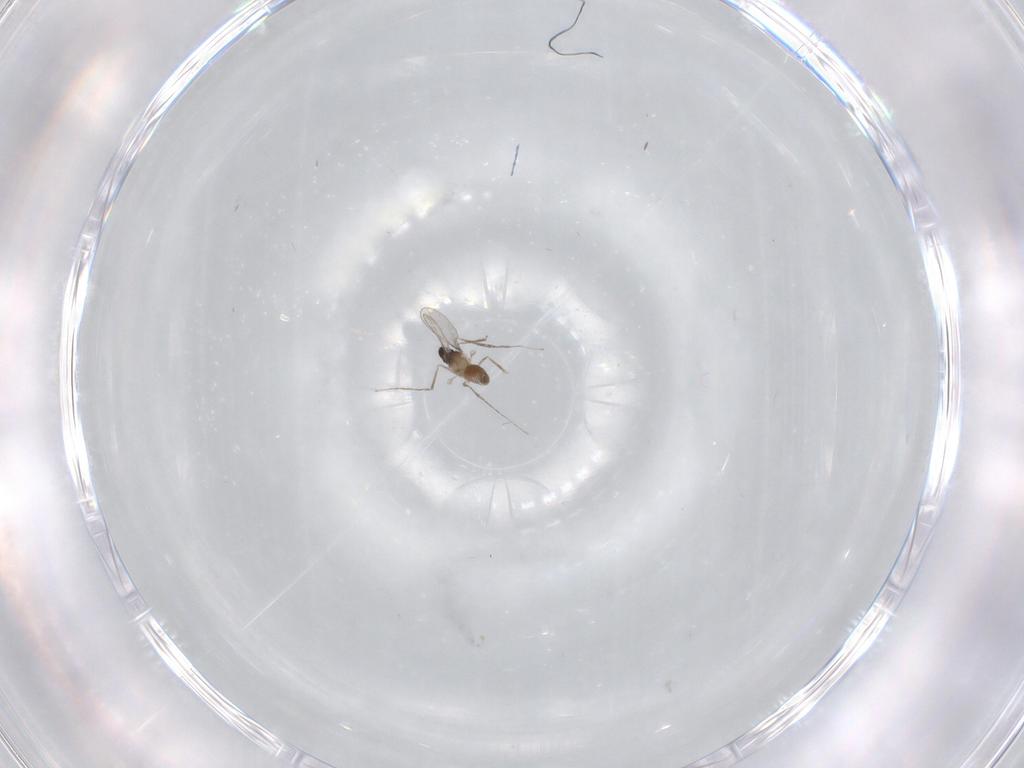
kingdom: Animalia
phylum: Arthropoda
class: Insecta
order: Diptera
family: Cecidomyiidae
